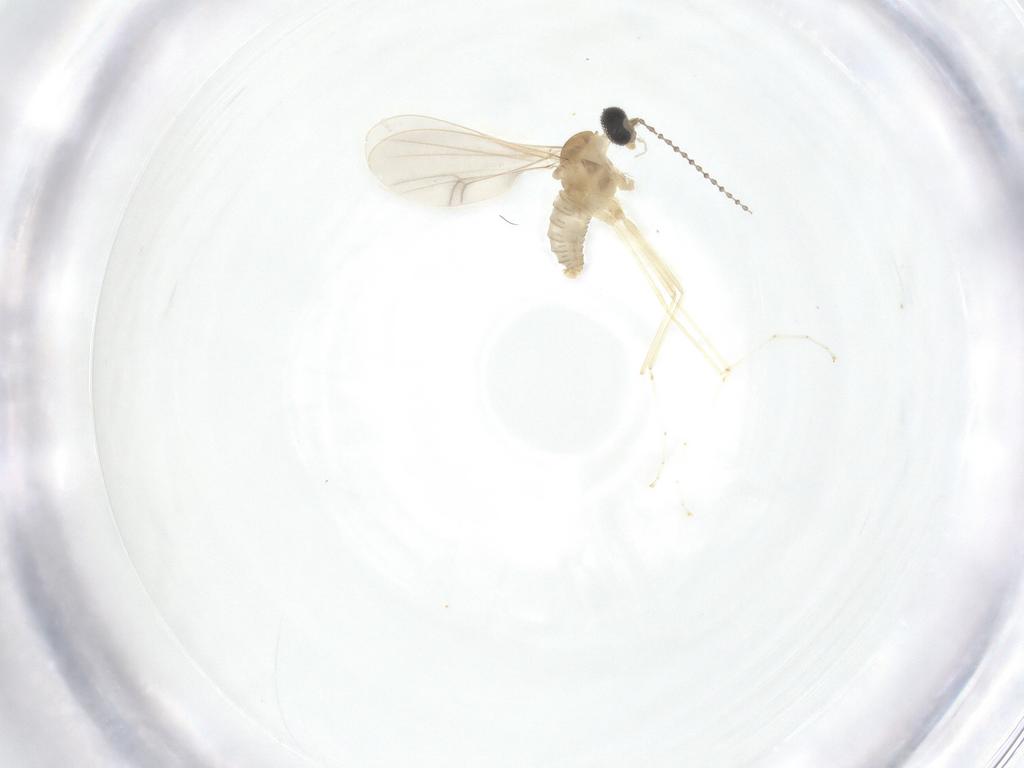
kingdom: Animalia
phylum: Arthropoda
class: Insecta
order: Diptera
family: Cecidomyiidae
